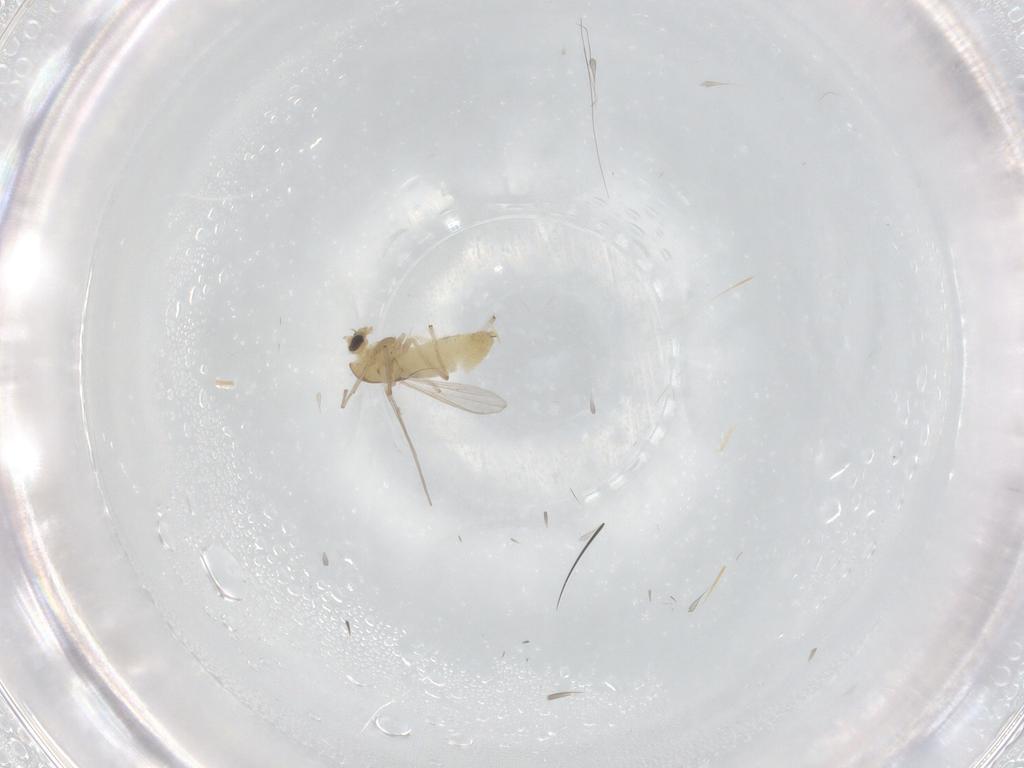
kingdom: Animalia
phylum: Arthropoda
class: Insecta
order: Diptera
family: Chironomidae
